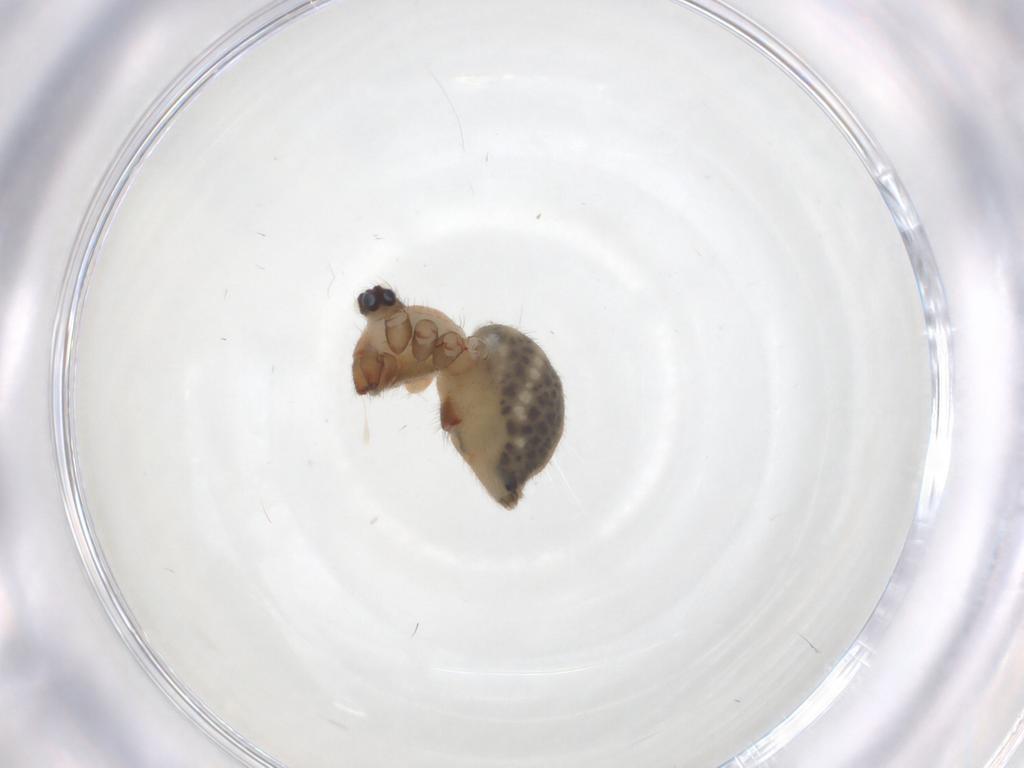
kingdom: Animalia
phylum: Arthropoda
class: Arachnida
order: Araneae
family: Pholcidae
